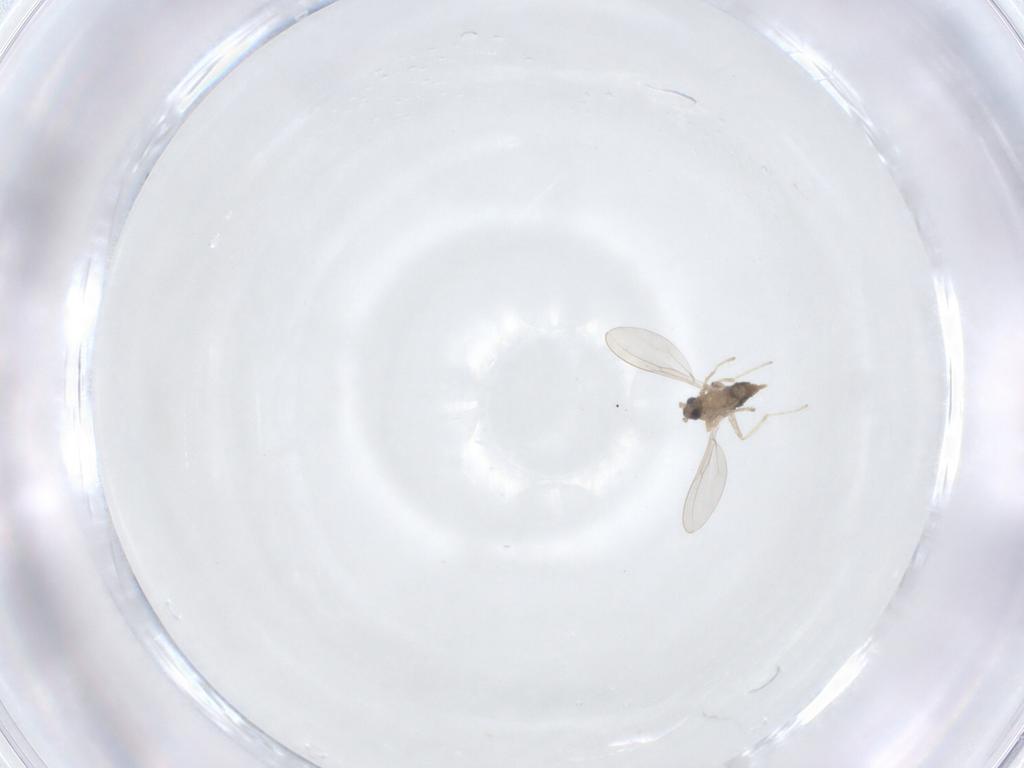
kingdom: Animalia
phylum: Arthropoda
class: Insecta
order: Diptera
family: Cecidomyiidae
